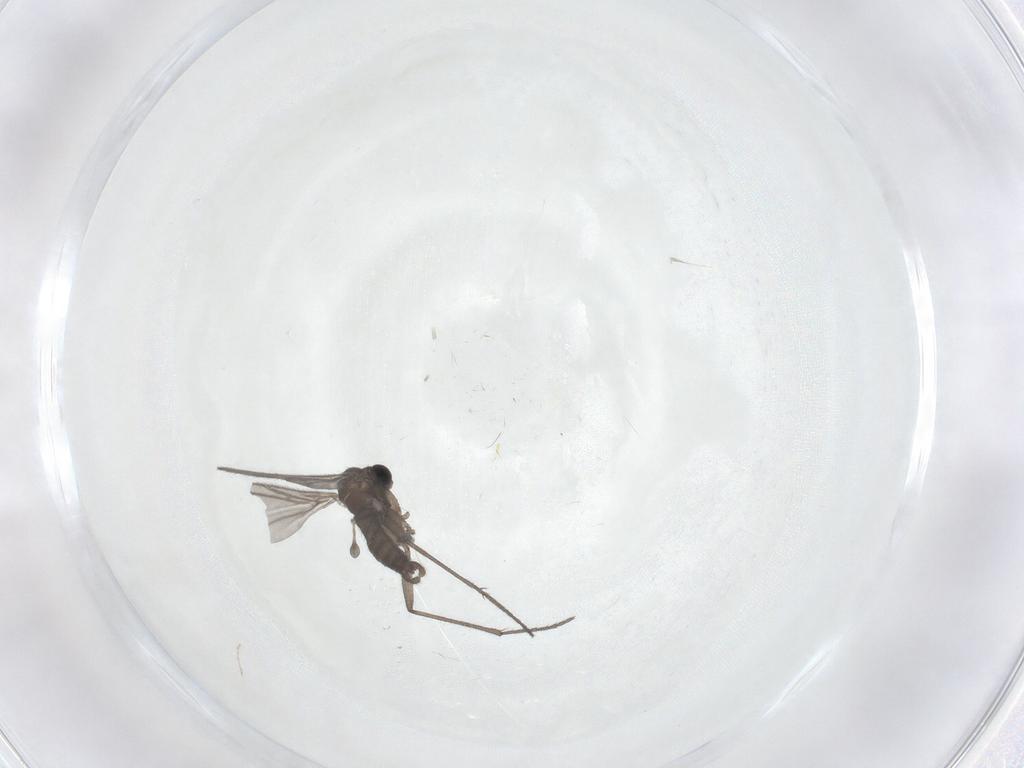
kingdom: Animalia
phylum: Arthropoda
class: Insecta
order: Diptera
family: Sciaridae
